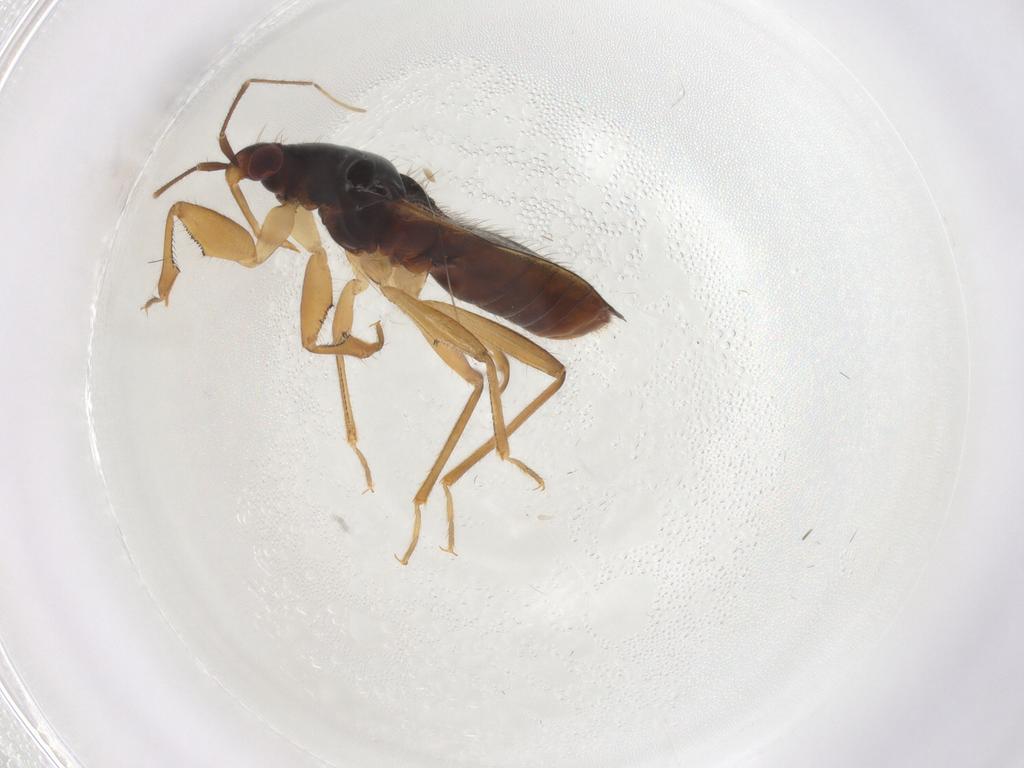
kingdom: Animalia
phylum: Arthropoda
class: Insecta
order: Hemiptera
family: Nabidae
